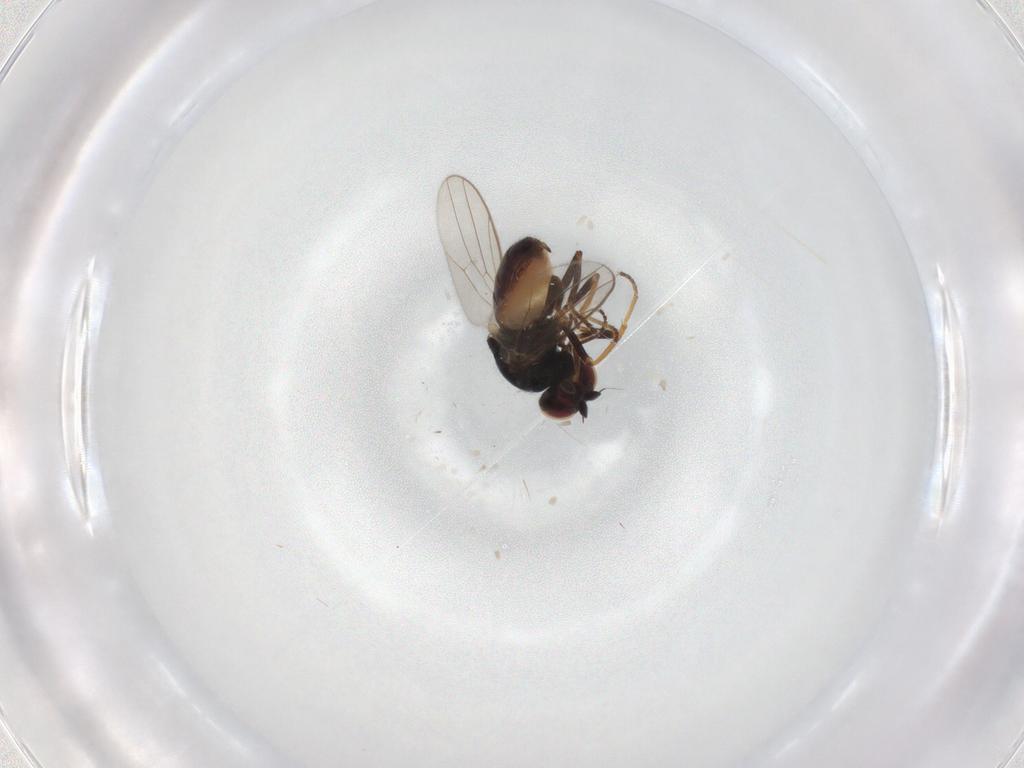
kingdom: Animalia
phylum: Arthropoda
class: Insecta
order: Diptera
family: Chloropidae
